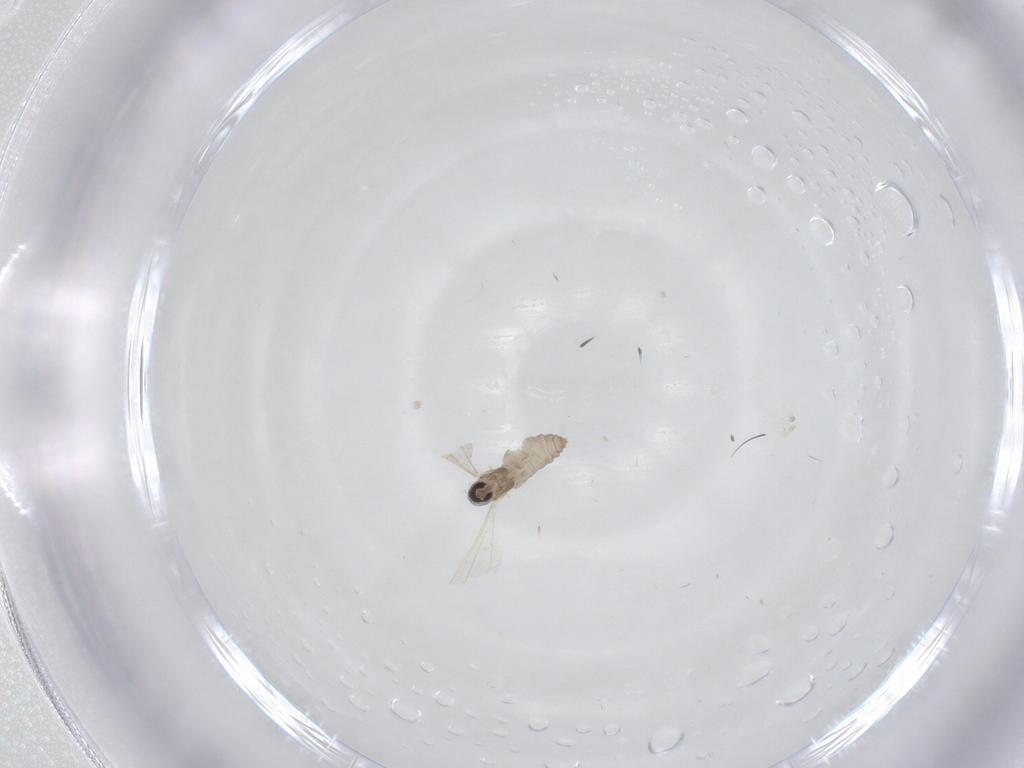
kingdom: Animalia
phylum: Arthropoda
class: Insecta
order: Diptera
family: Cecidomyiidae
